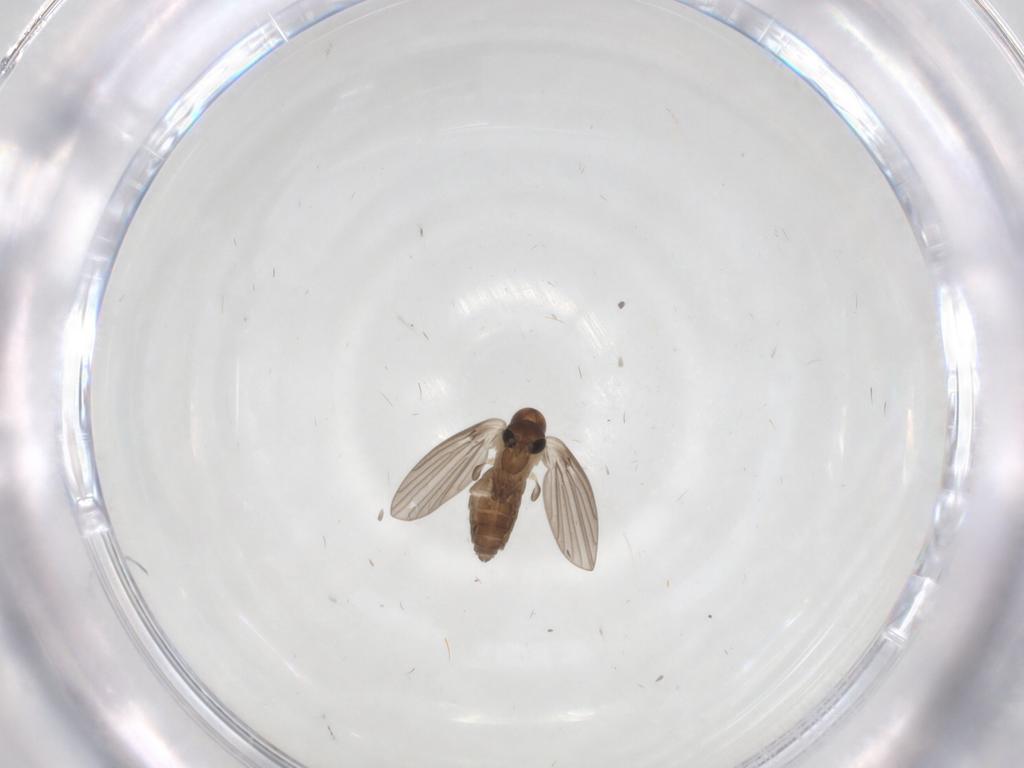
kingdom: Animalia
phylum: Arthropoda
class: Insecta
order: Diptera
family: Psychodidae
